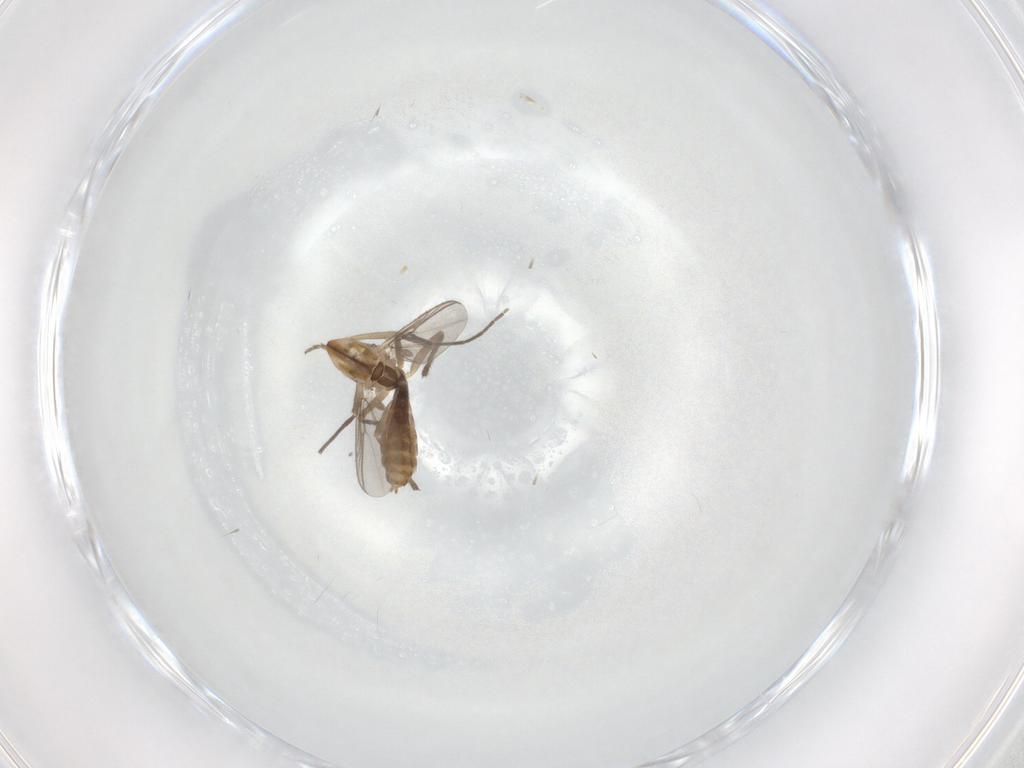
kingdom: Animalia
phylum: Arthropoda
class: Insecta
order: Diptera
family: Chironomidae
